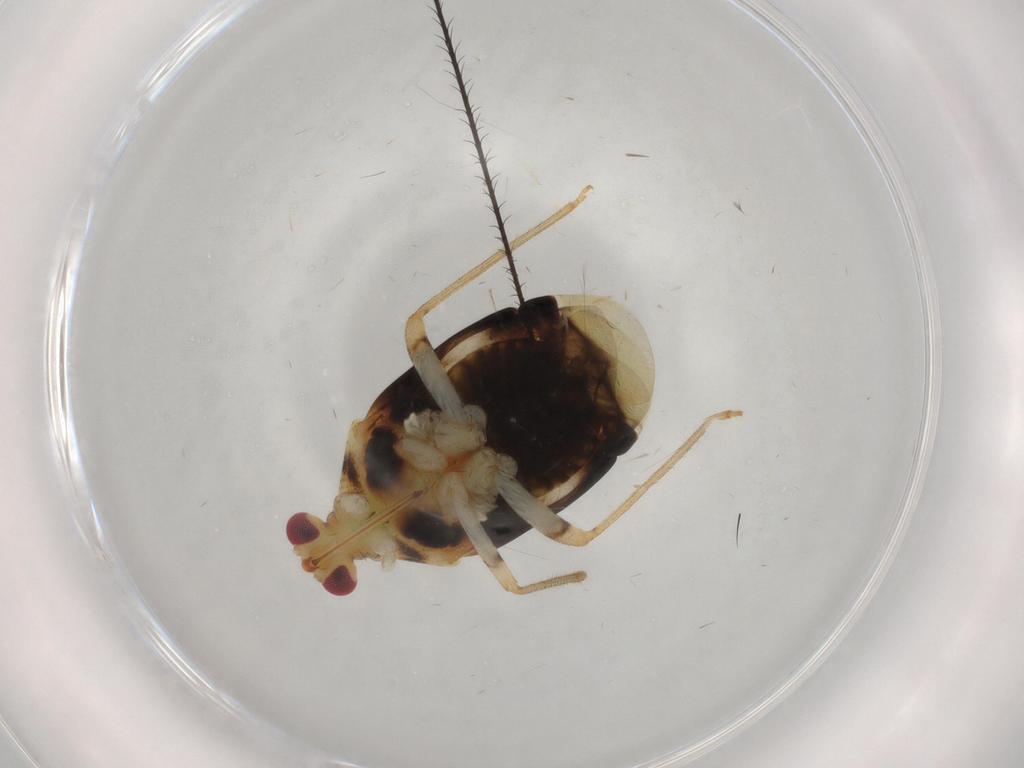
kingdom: Animalia
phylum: Arthropoda
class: Insecta
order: Hemiptera
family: Miridae
